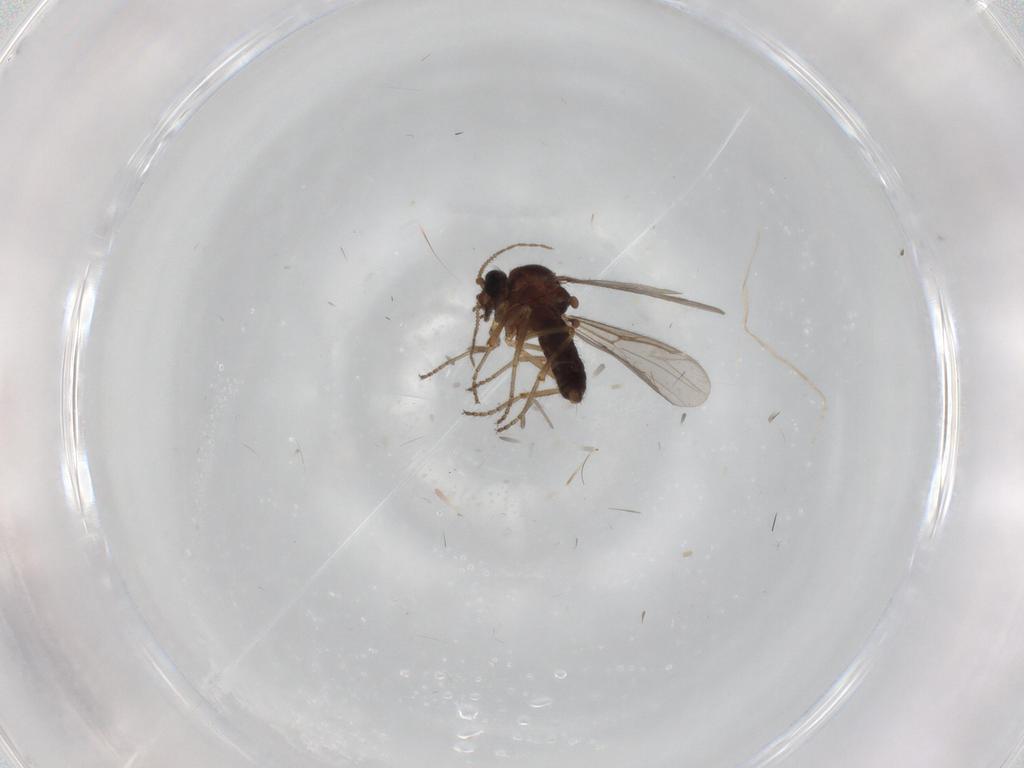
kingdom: Animalia
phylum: Arthropoda
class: Insecta
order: Diptera
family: Ceratopogonidae
